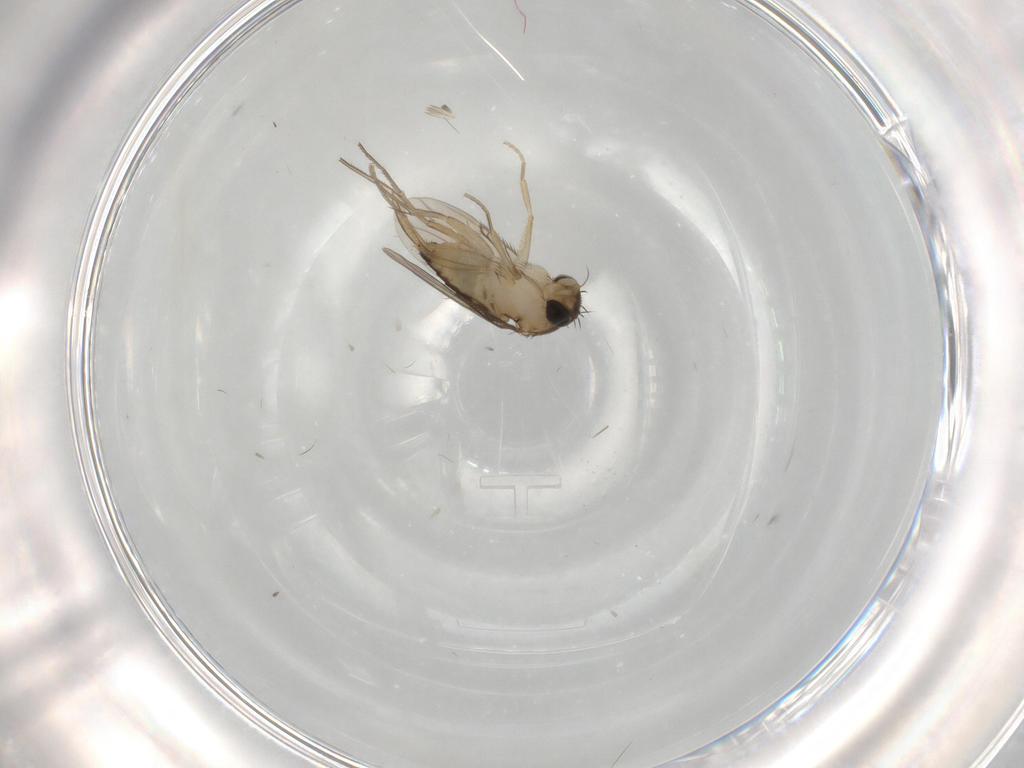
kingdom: Animalia
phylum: Arthropoda
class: Insecta
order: Diptera
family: Phoridae
